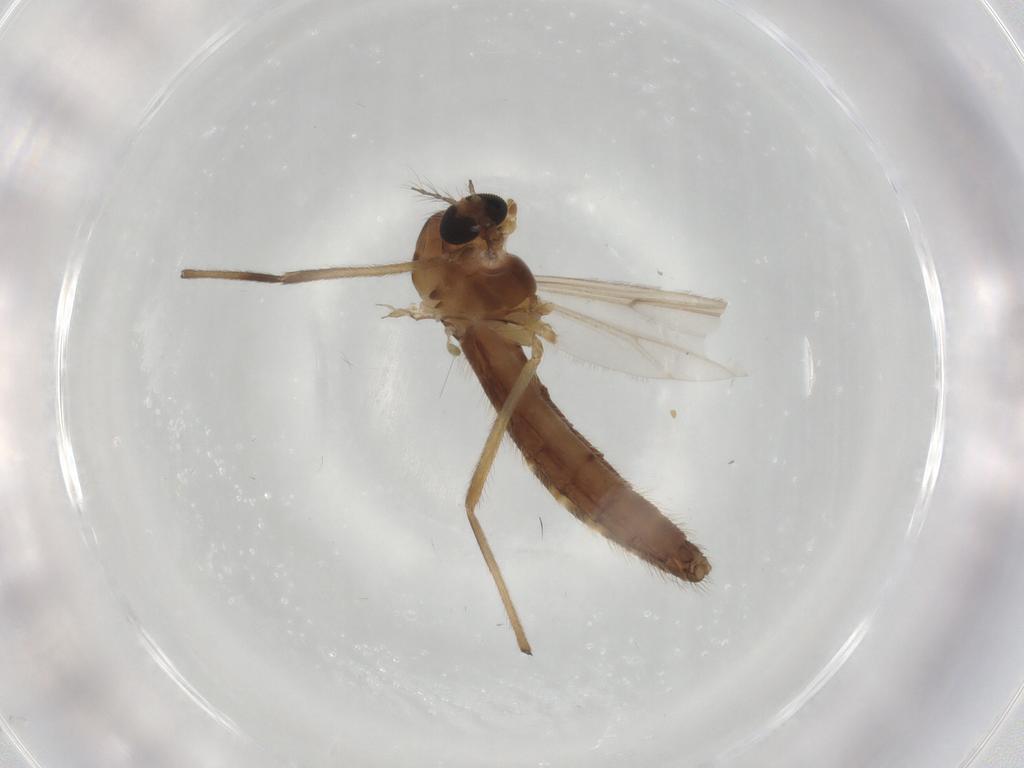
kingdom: Animalia
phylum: Arthropoda
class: Insecta
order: Diptera
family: Chironomidae
